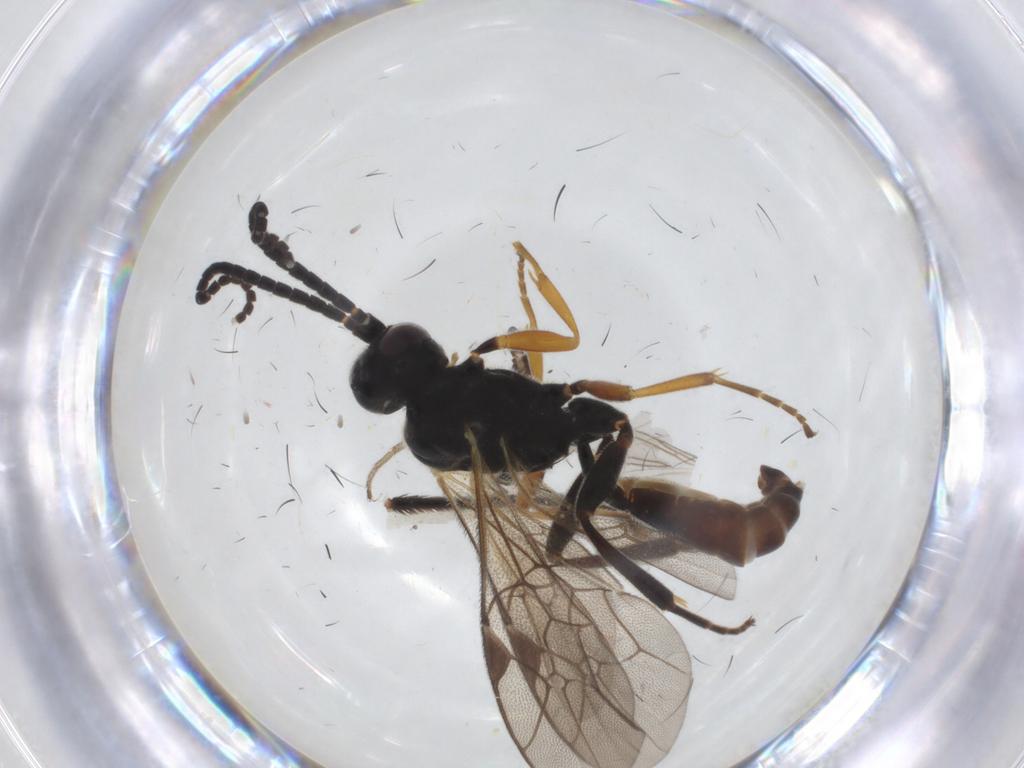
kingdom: Animalia
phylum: Arthropoda
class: Insecta
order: Hymenoptera
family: Ichneumonidae
